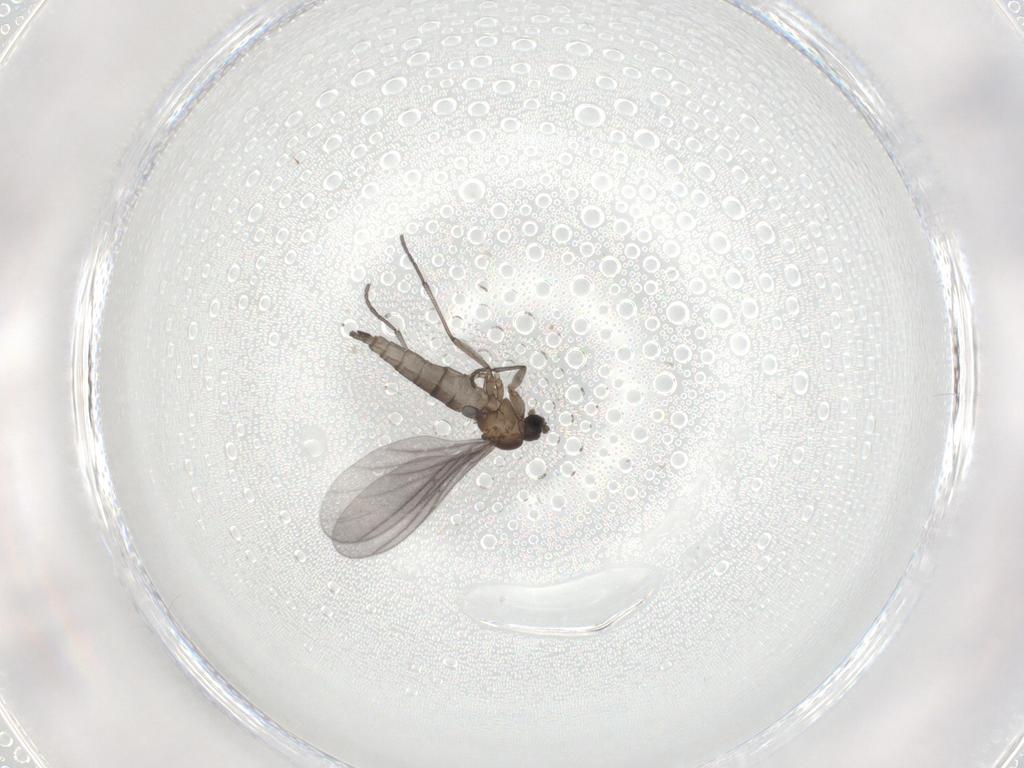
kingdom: Animalia
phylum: Arthropoda
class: Insecta
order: Diptera
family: Sciaridae
